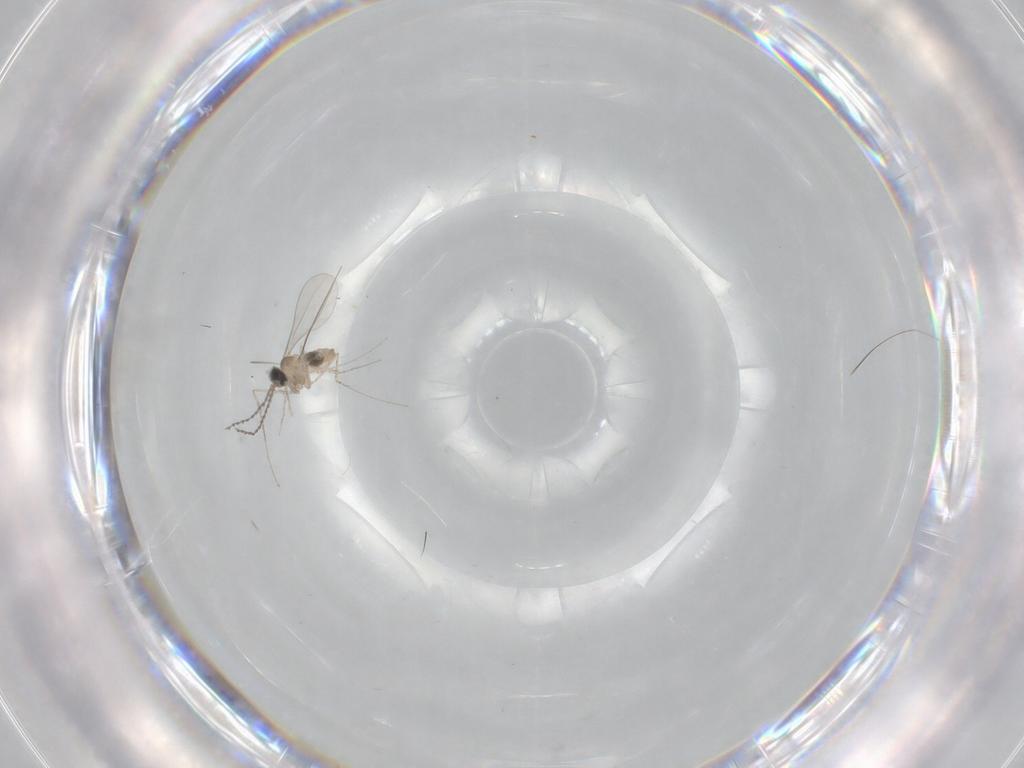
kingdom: Animalia
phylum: Arthropoda
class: Insecta
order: Diptera
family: Cecidomyiidae
